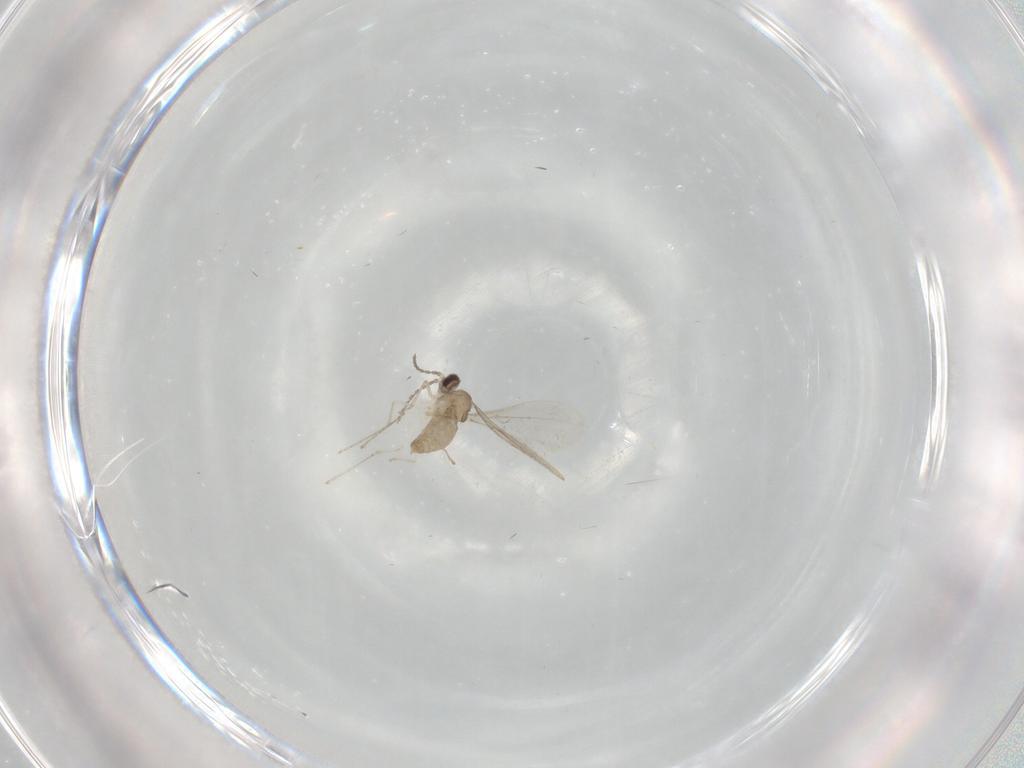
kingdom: Animalia
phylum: Arthropoda
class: Insecta
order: Diptera
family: Cecidomyiidae
